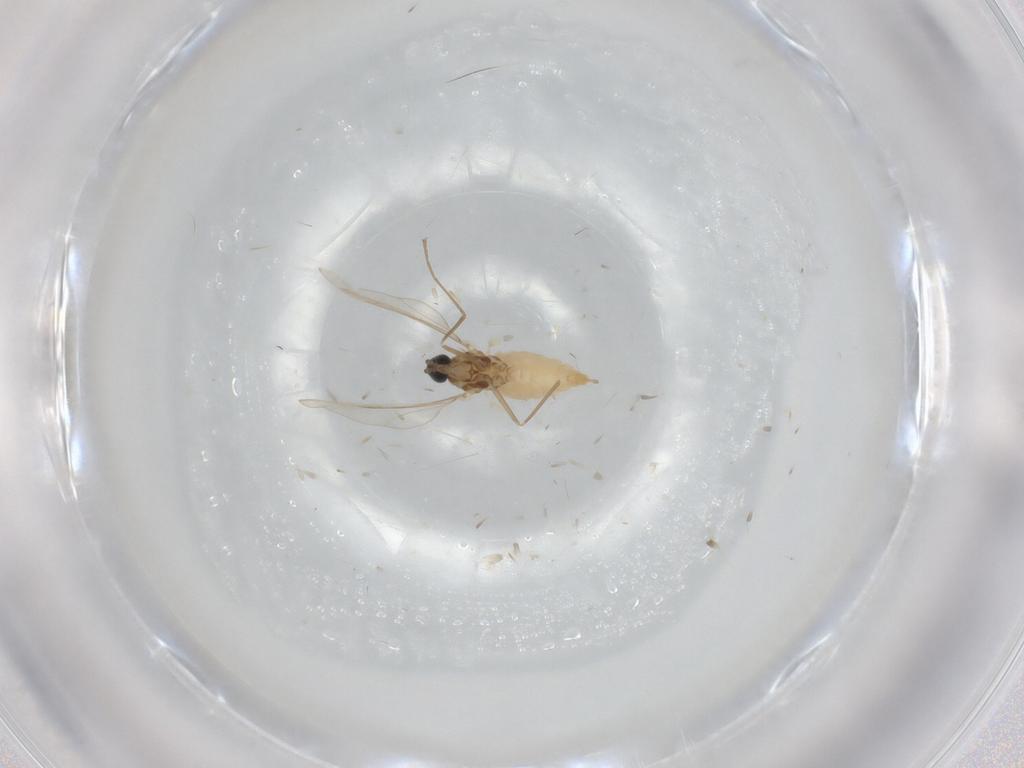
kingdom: Animalia
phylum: Arthropoda
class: Insecta
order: Diptera
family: Cecidomyiidae
